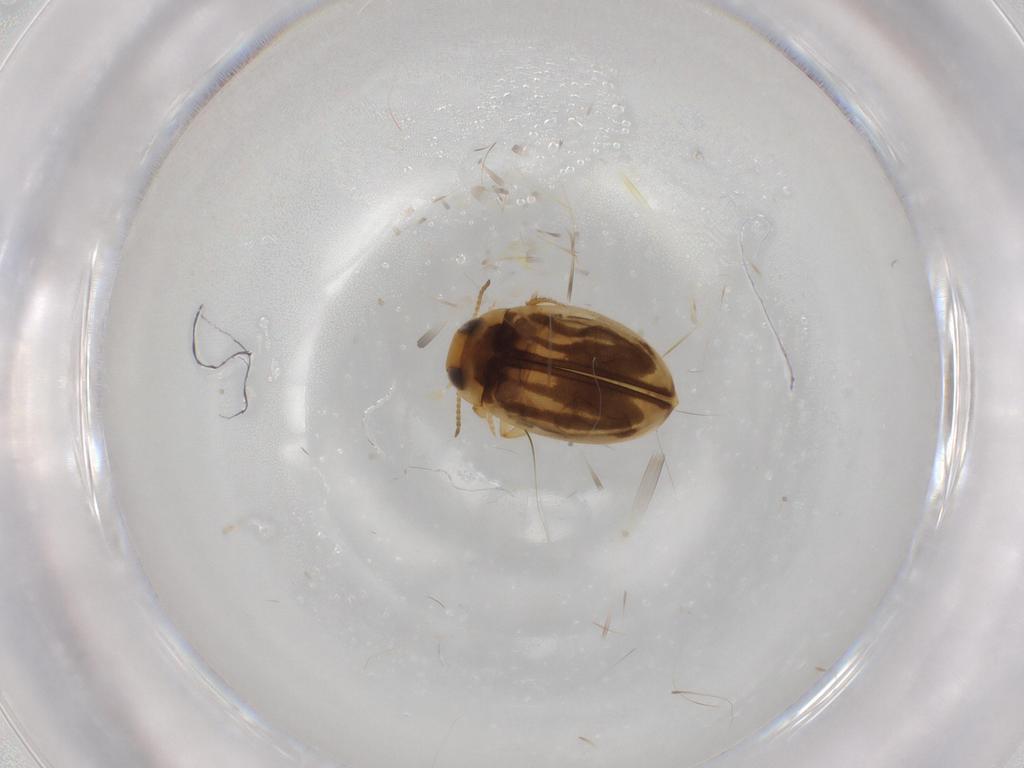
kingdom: Animalia
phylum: Arthropoda
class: Insecta
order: Coleoptera
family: Dytiscidae
